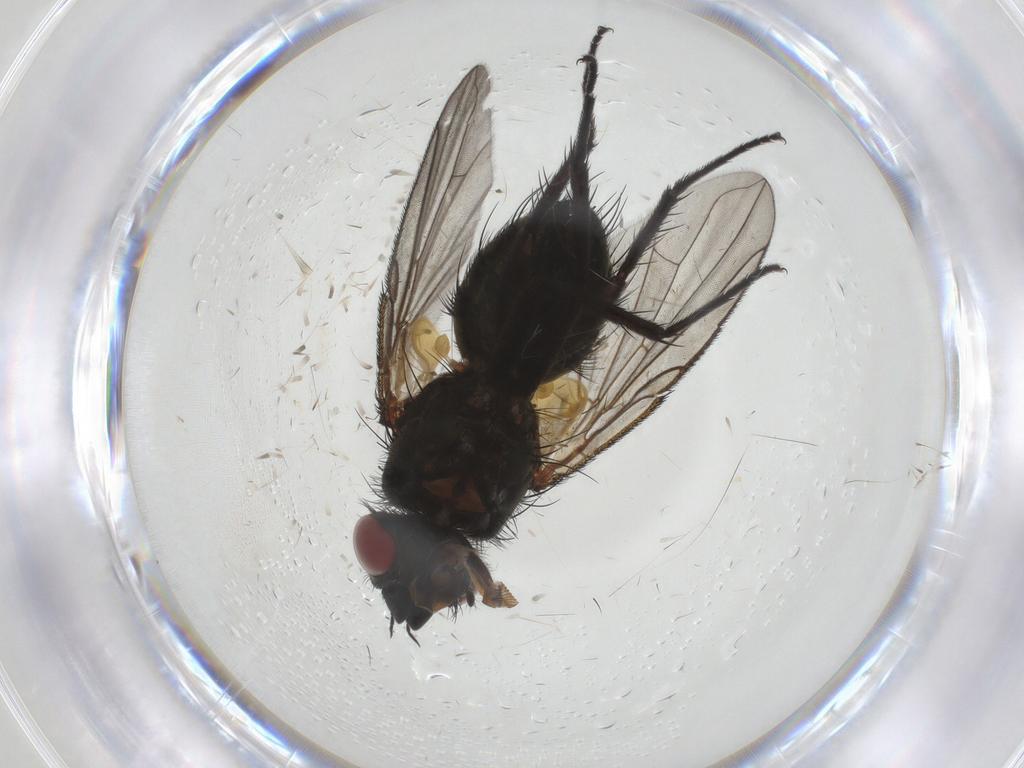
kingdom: Animalia
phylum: Arthropoda
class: Insecta
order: Diptera
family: Tachinidae
